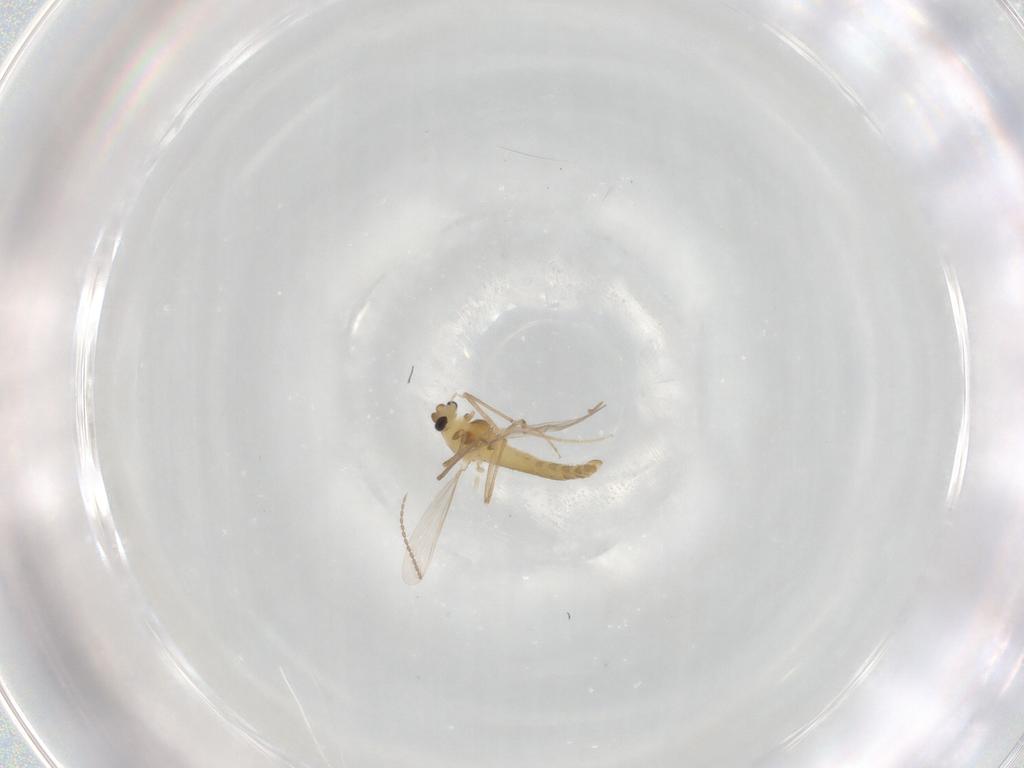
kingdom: Animalia
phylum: Arthropoda
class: Insecta
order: Diptera
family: Chironomidae
